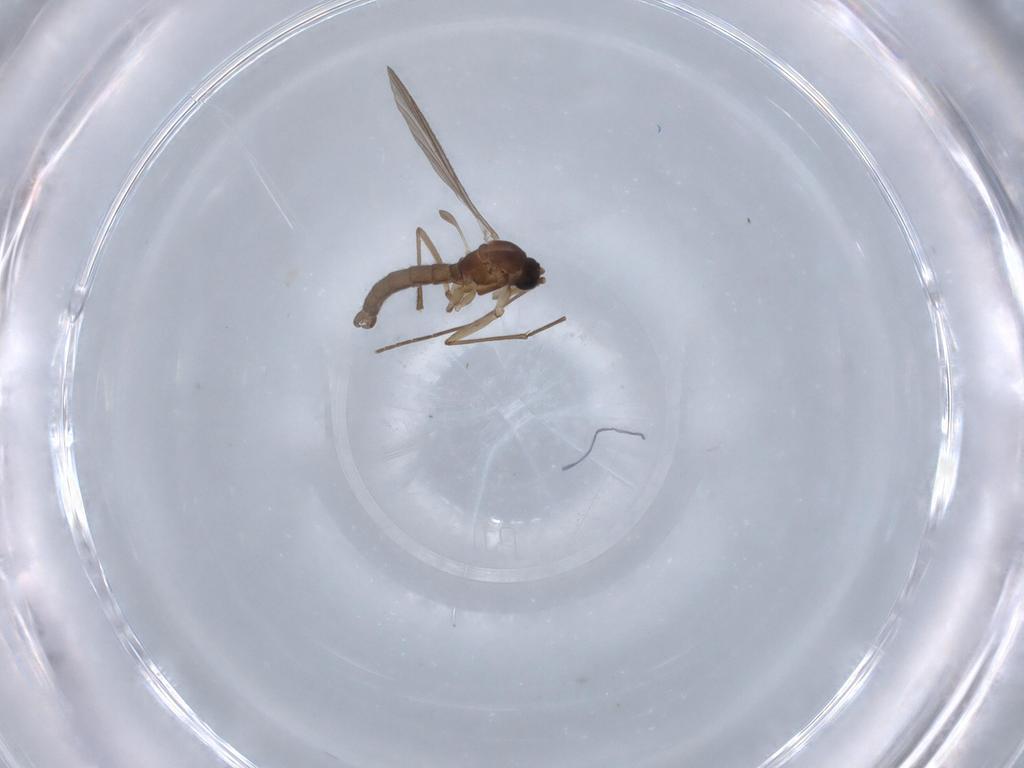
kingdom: Animalia
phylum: Arthropoda
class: Insecta
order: Diptera
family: Sciaridae
